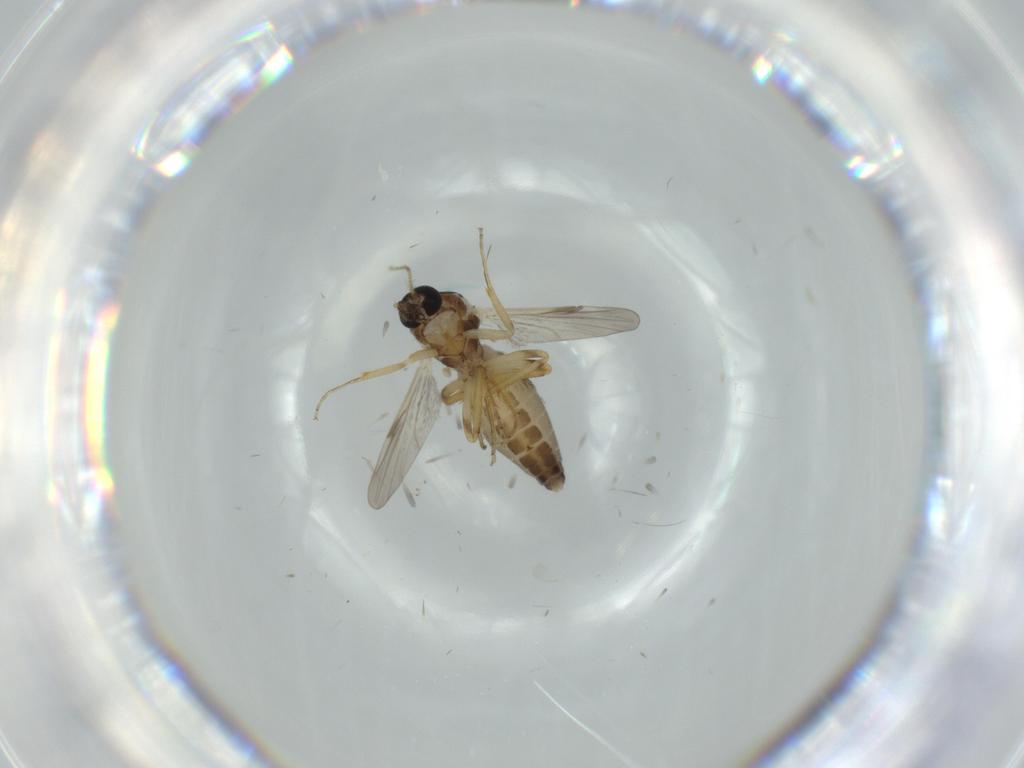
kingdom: Animalia
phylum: Arthropoda
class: Insecta
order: Diptera
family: Ceratopogonidae
